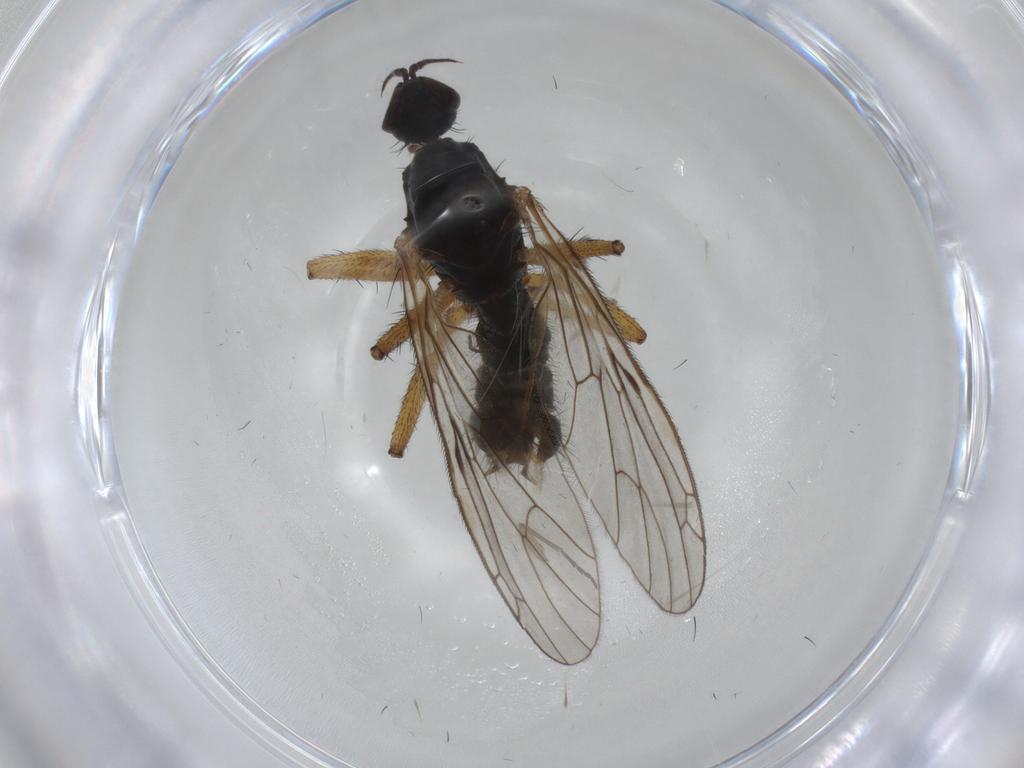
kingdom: Animalia
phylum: Arthropoda
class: Insecta
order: Diptera
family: Empididae
